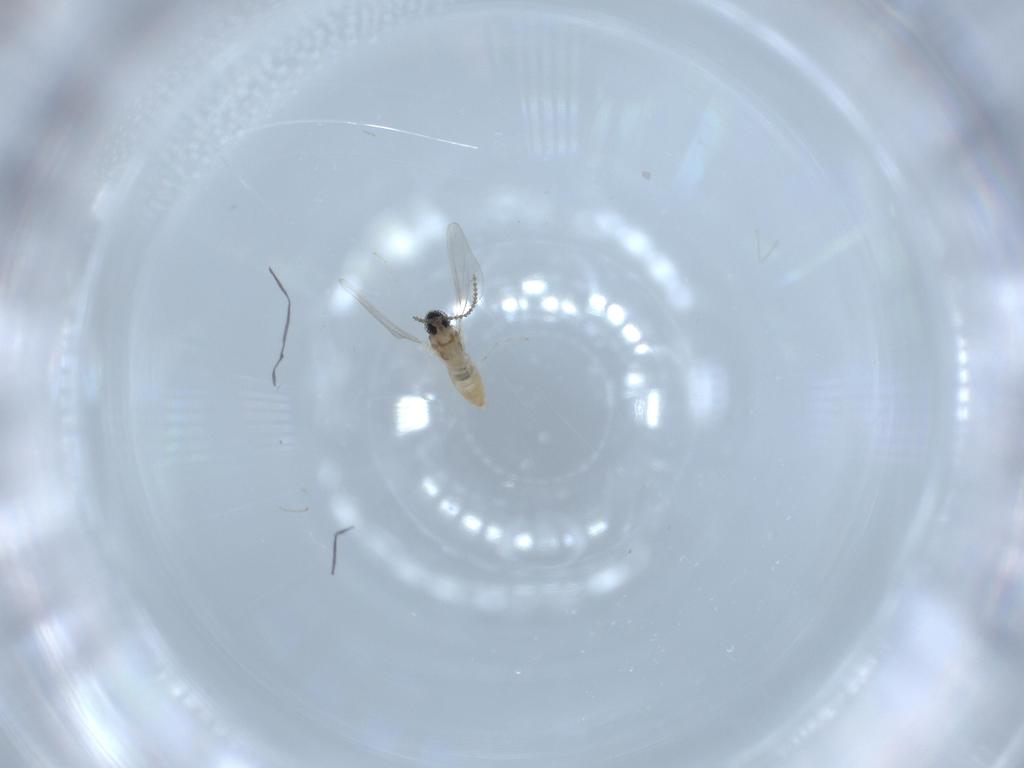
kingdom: Animalia
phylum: Arthropoda
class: Insecta
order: Diptera
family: Cecidomyiidae
